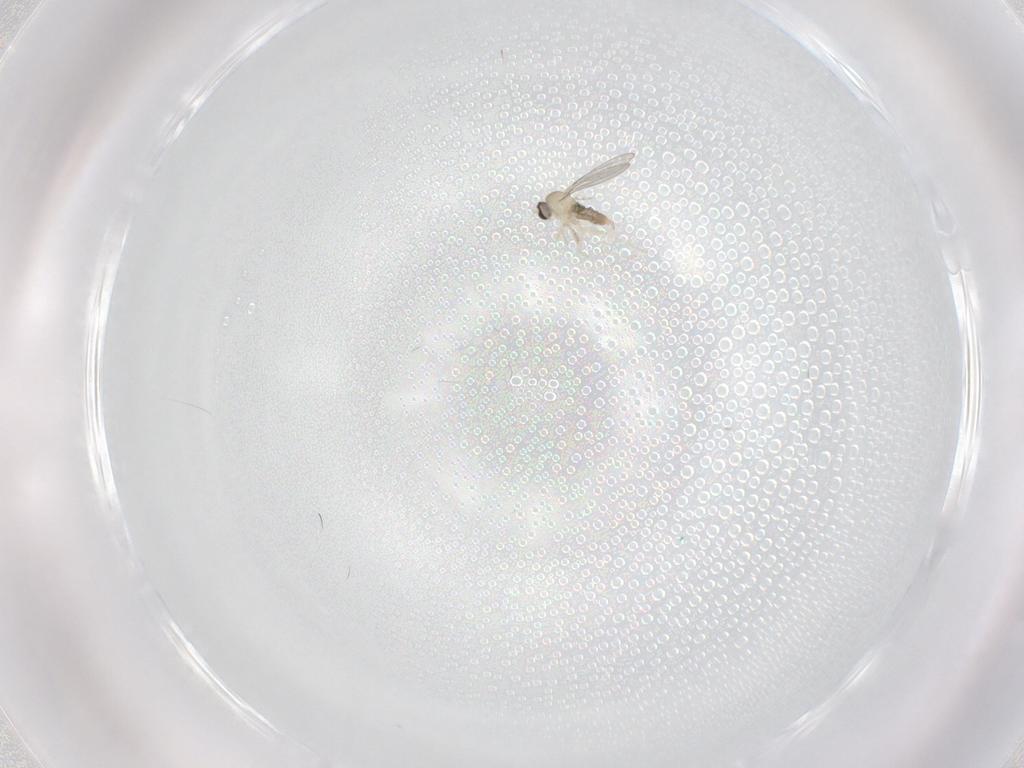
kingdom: Animalia
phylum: Arthropoda
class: Insecta
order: Diptera
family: Cecidomyiidae
